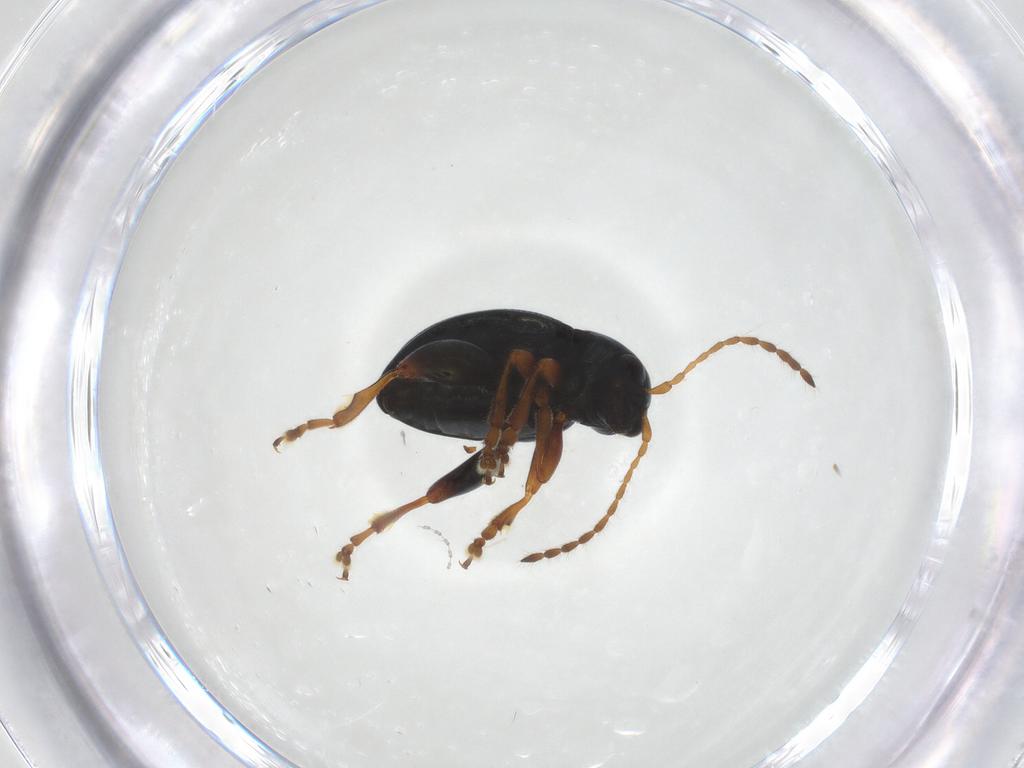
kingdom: Animalia
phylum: Arthropoda
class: Insecta
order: Coleoptera
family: Chrysomelidae
